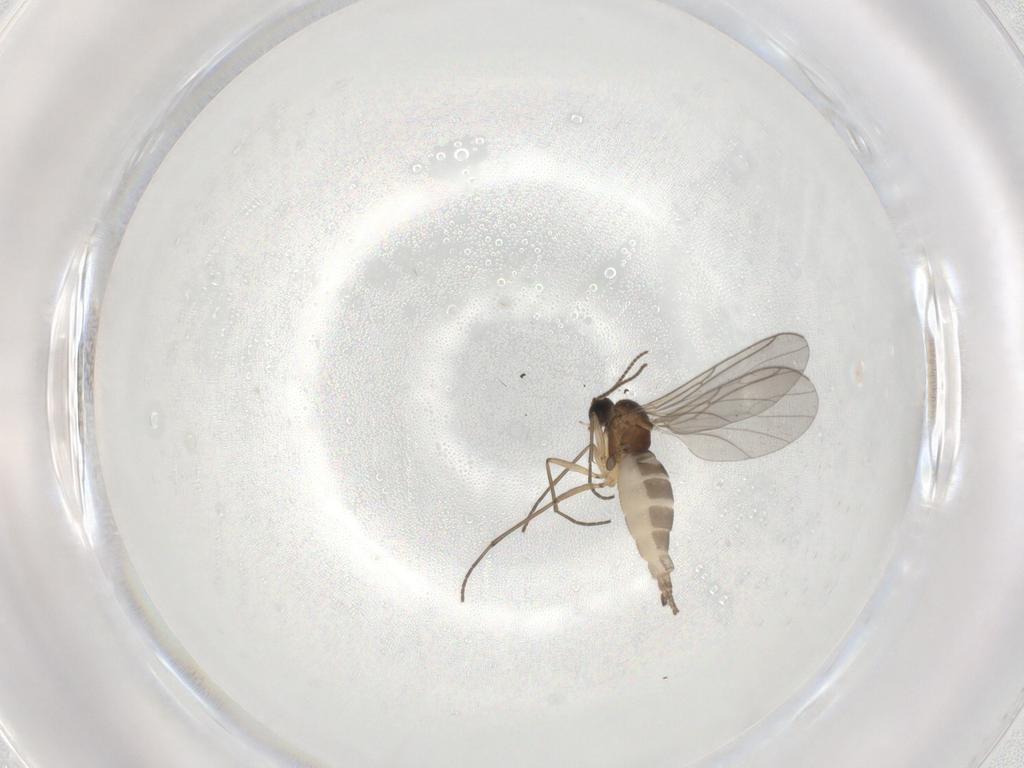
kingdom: Animalia
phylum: Arthropoda
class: Insecta
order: Diptera
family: Sciaridae
